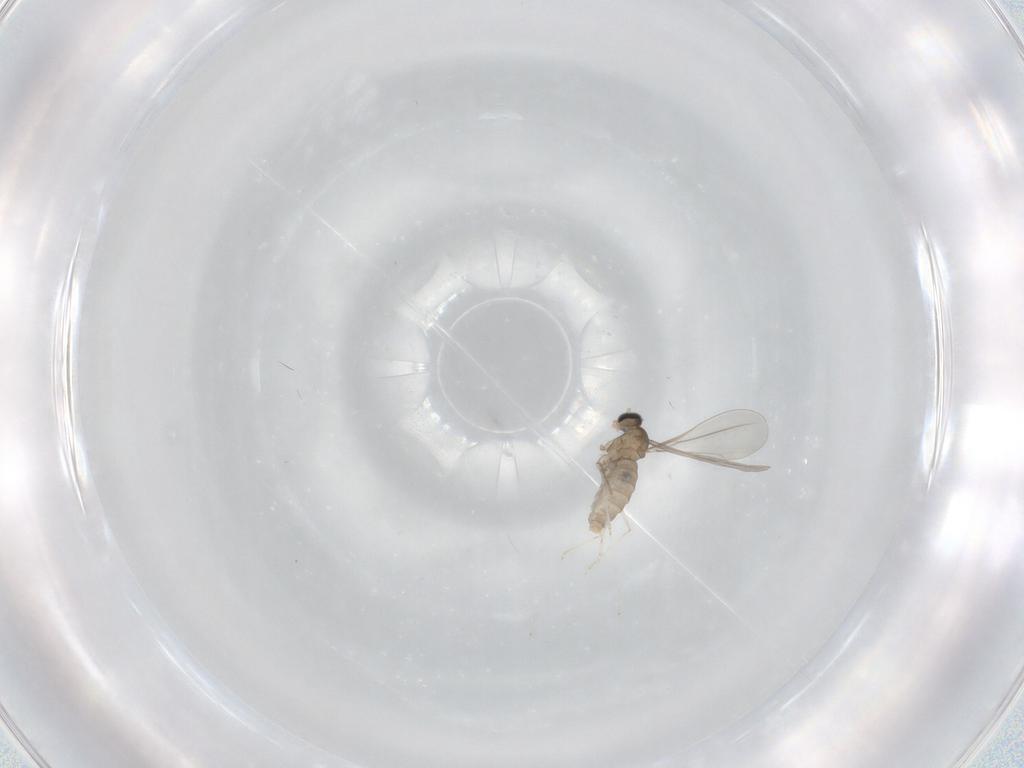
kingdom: Animalia
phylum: Arthropoda
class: Insecta
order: Diptera
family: Cecidomyiidae
